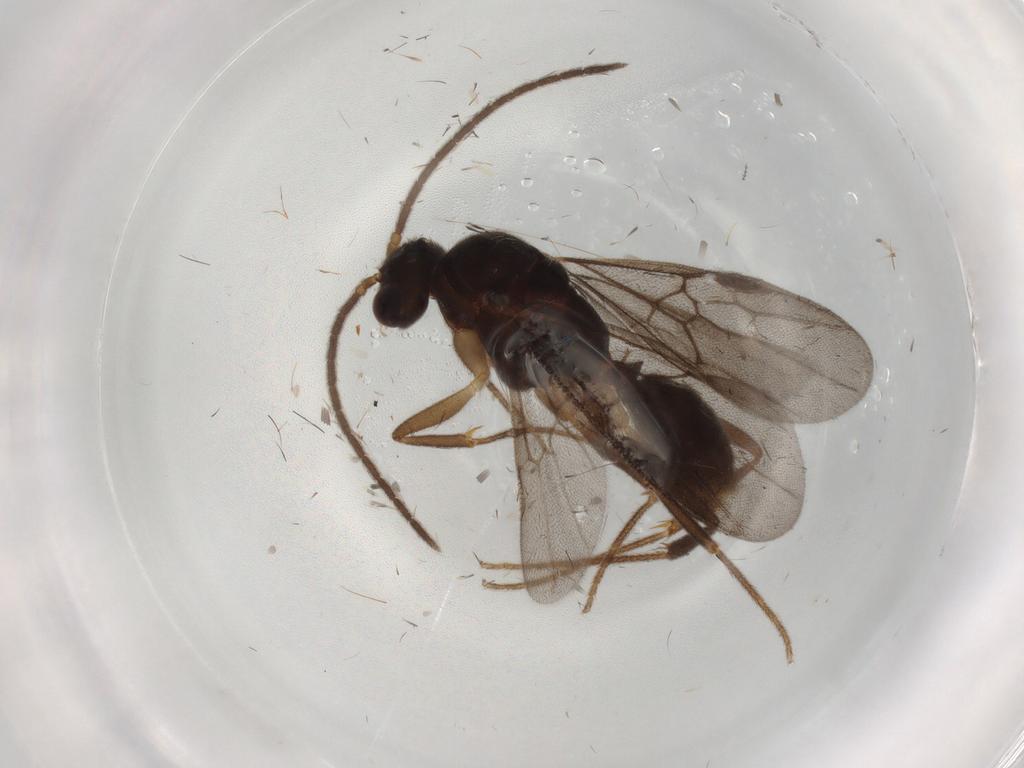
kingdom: Animalia
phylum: Arthropoda
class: Insecta
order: Hymenoptera
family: Formicidae
